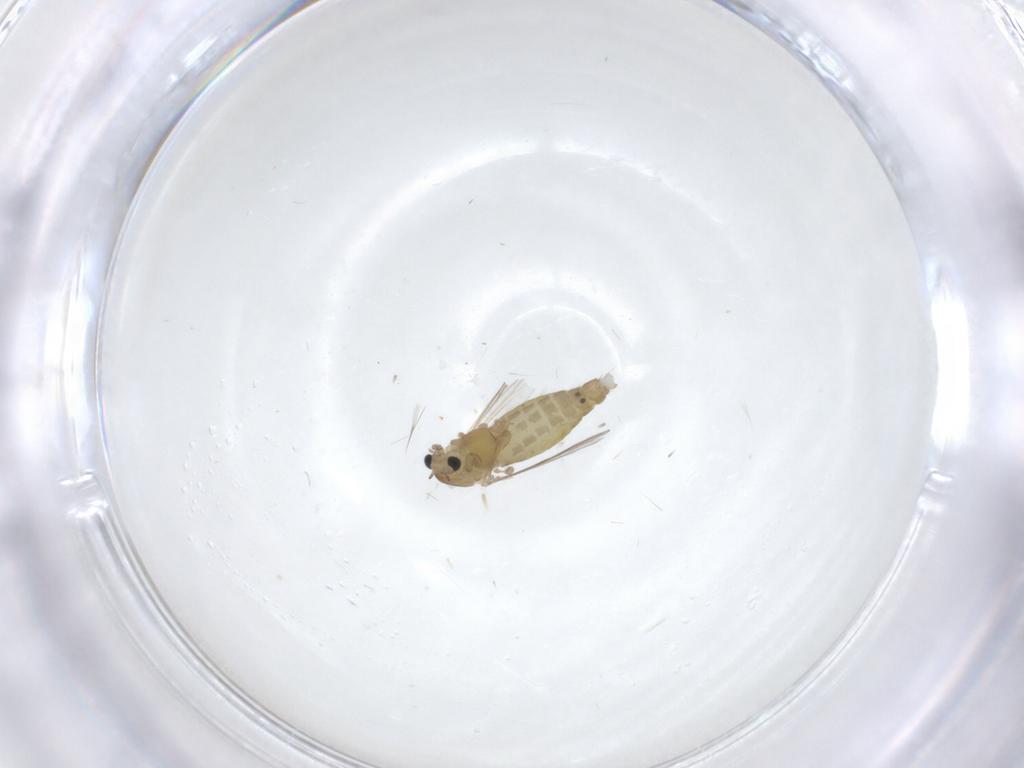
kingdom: Animalia
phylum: Arthropoda
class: Insecta
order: Diptera
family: Chironomidae
